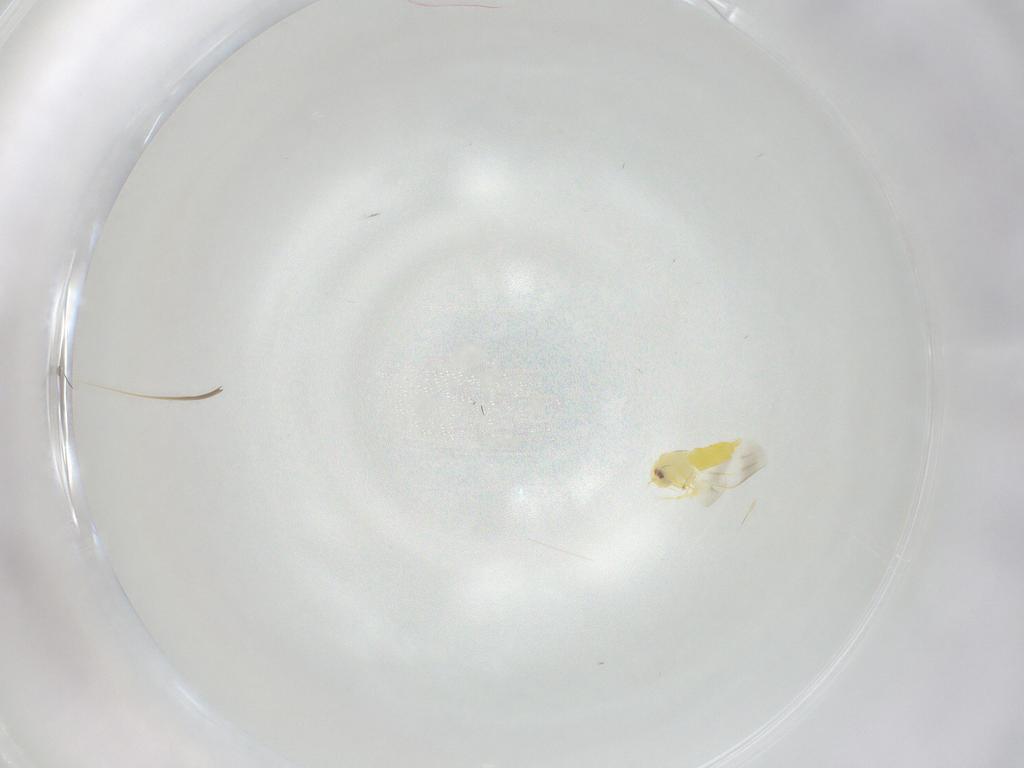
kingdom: Animalia
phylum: Arthropoda
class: Insecta
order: Hemiptera
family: Aleyrodidae
